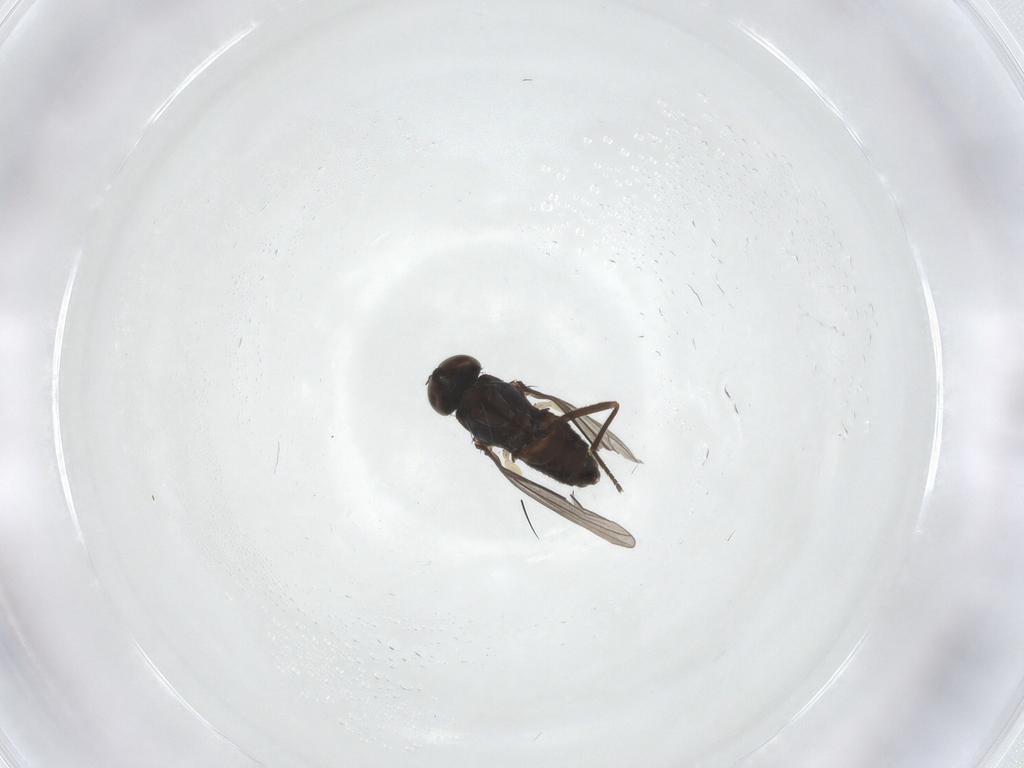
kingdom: Animalia
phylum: Arthropoda
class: Insecta
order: Diptera
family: Dolichopodidae
